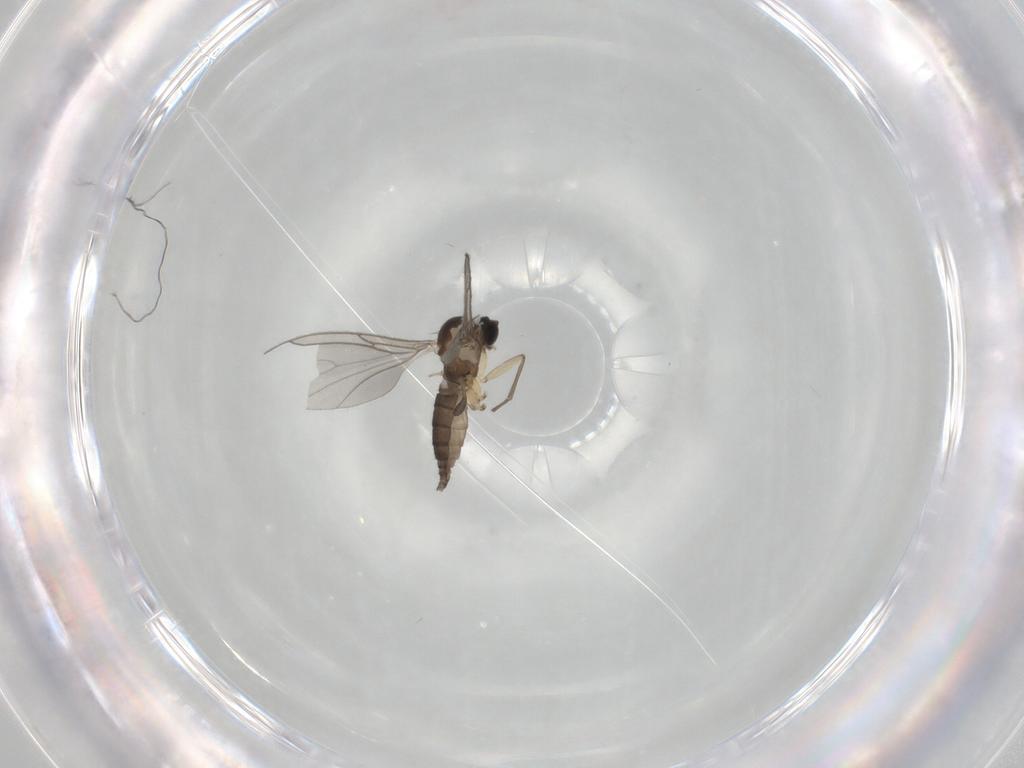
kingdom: Animalia
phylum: Arthropoda
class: Insecta
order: Diptera
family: Sciaridae
